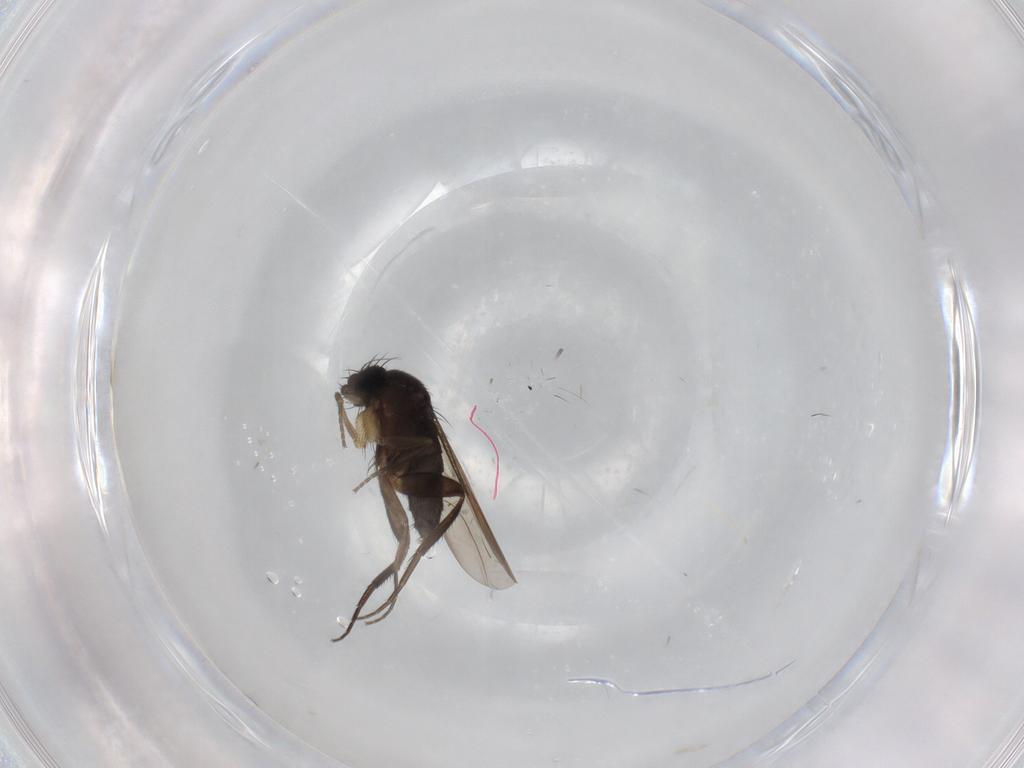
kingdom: Animalia
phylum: Arthropoda
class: Insecta
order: Diptera
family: Phoridae
